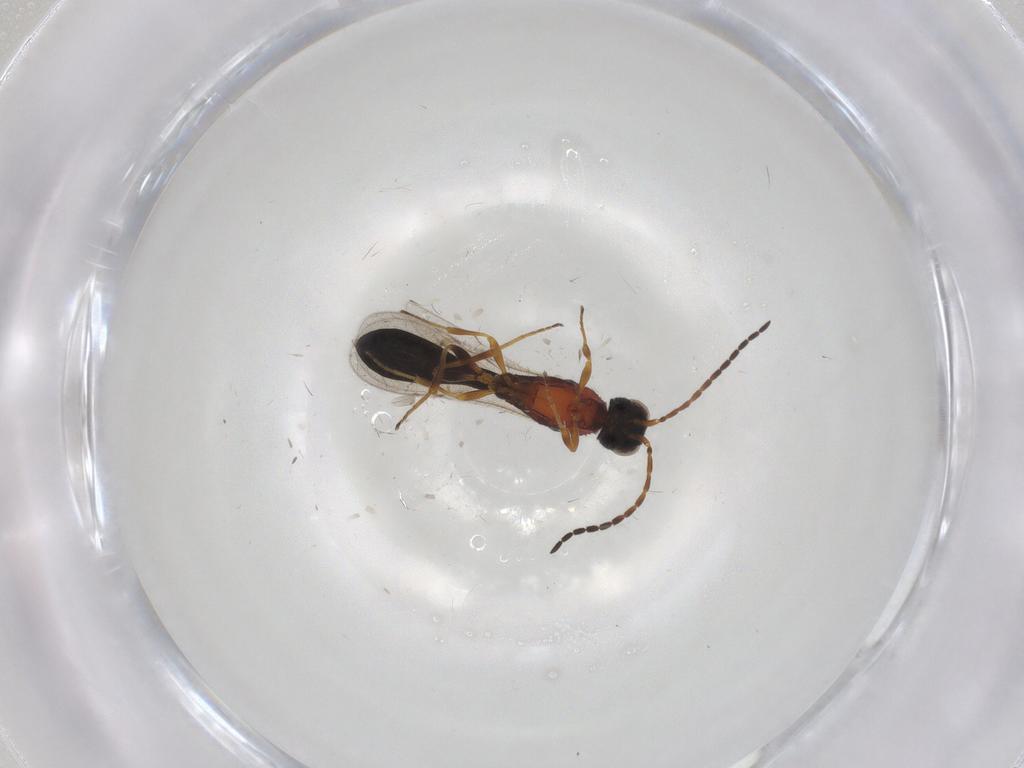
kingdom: Animalia
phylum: Arthropoda
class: Insecta
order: Hymenoptera
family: Scelionidae
